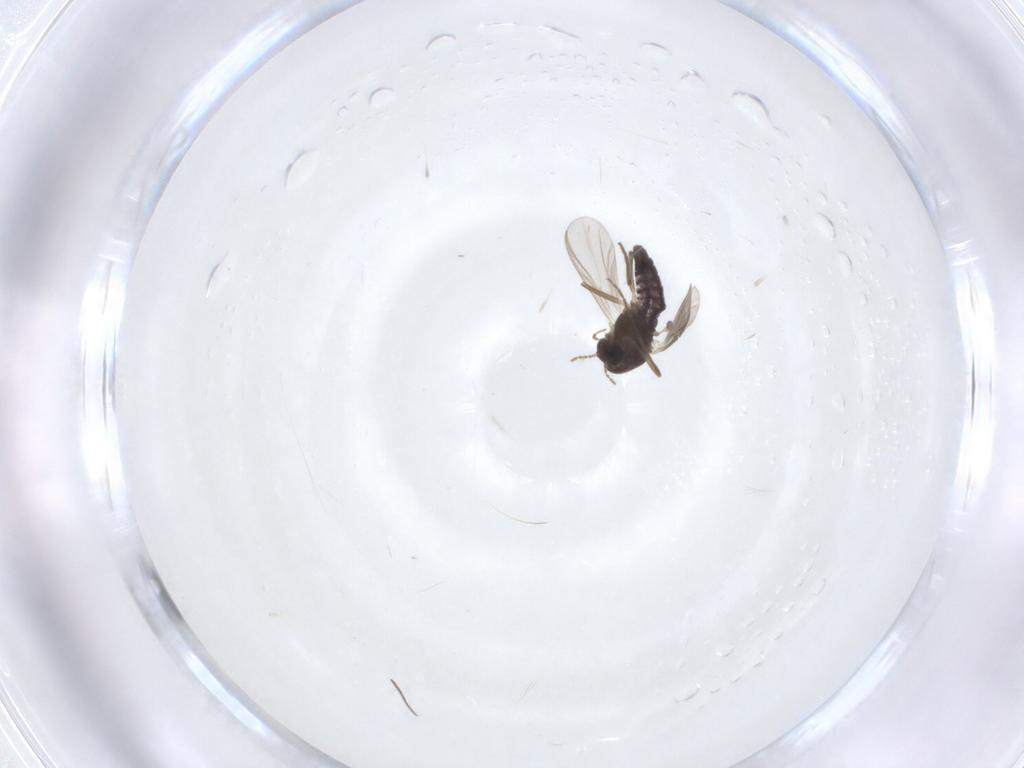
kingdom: Animalia
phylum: Arthropoda
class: Insecta
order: Diptera
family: Chironomidae
